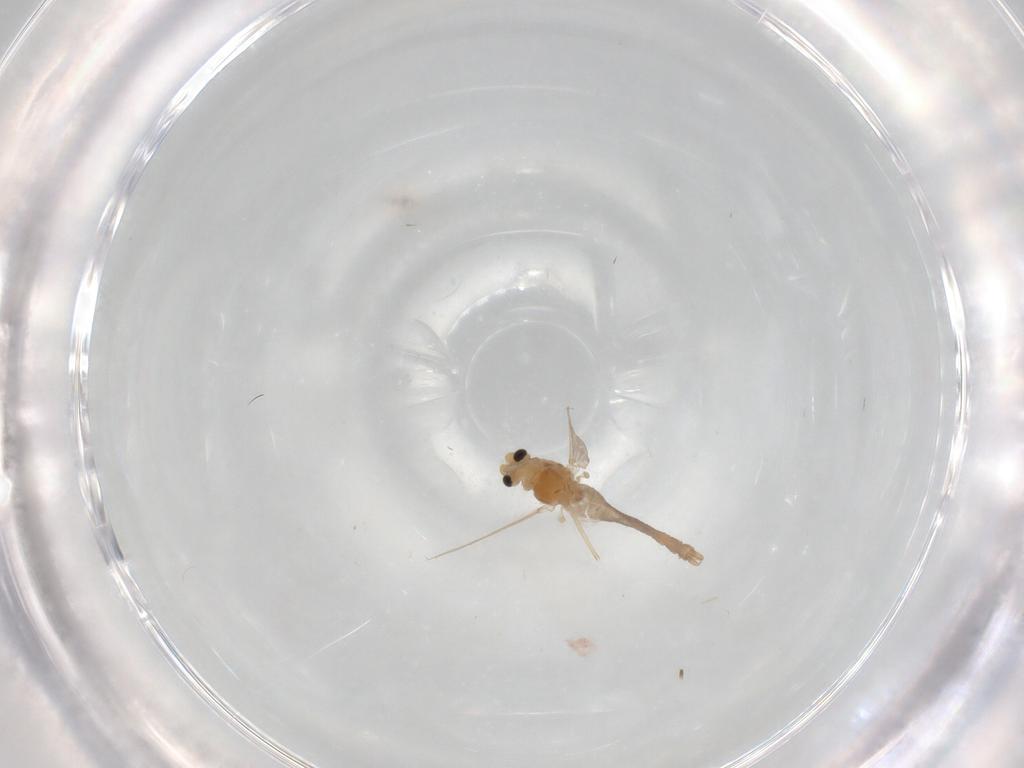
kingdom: Animalia
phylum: Arthropoda
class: Insecta
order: Diptera
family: Chironomidae
